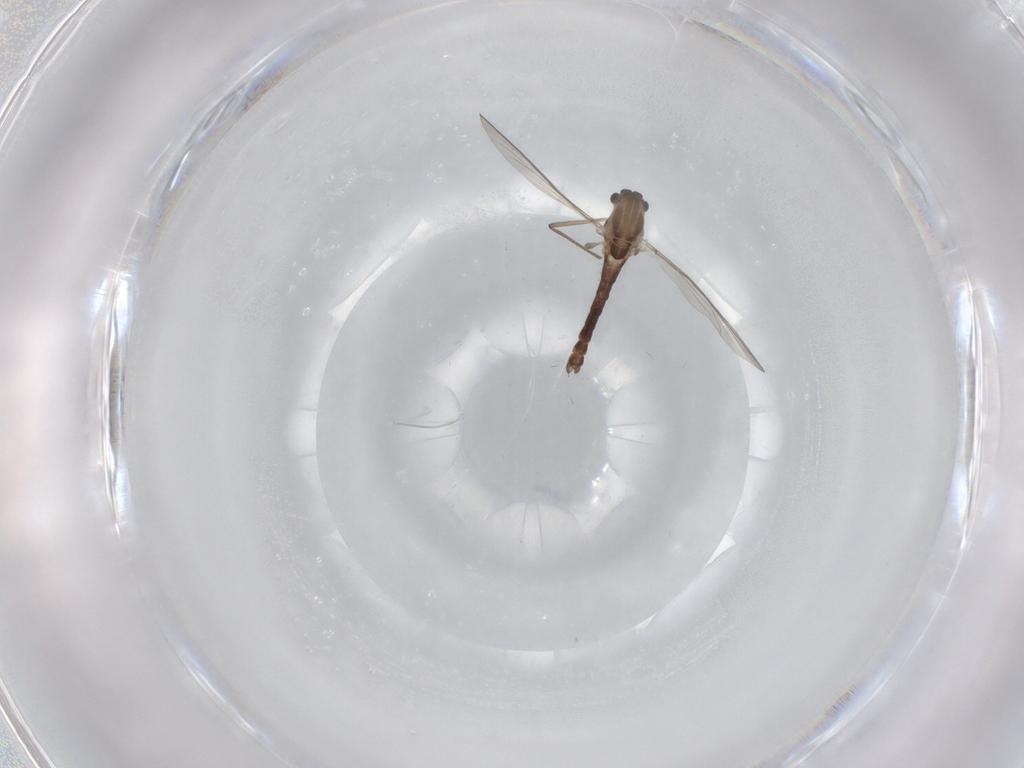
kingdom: Animalia
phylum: Arthropoda
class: Insecta
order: Diptera
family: Chironomidae
